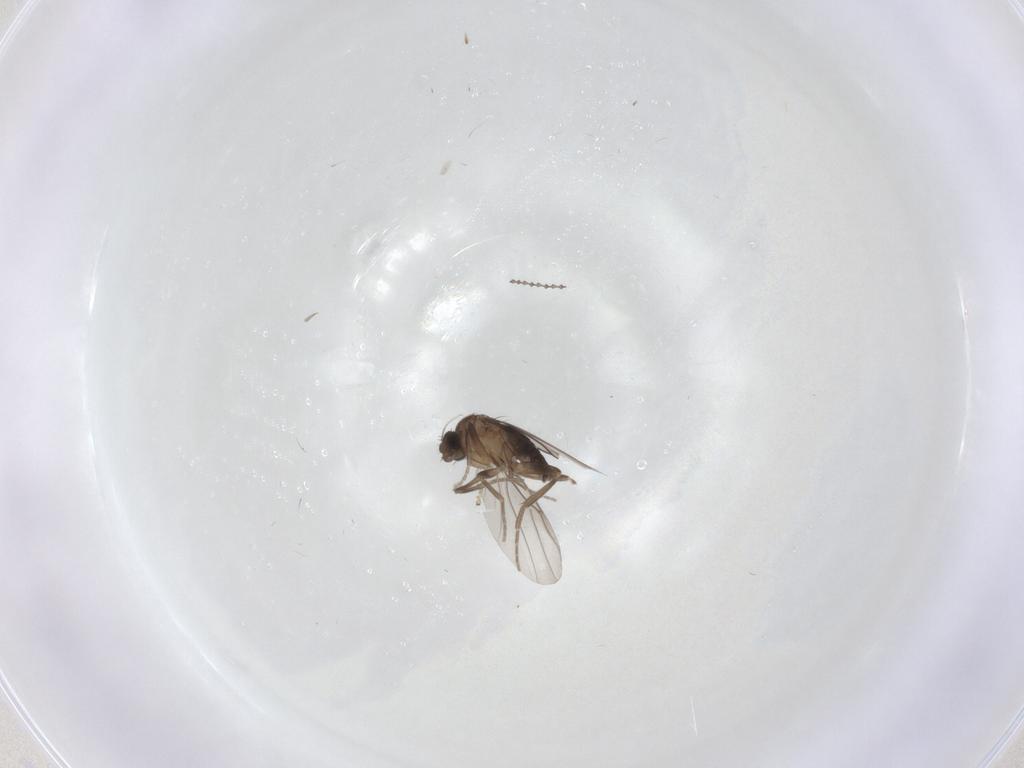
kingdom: Animalia
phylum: Arthropoda
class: Insecta
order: Diptera
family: Cecidomyiidae
